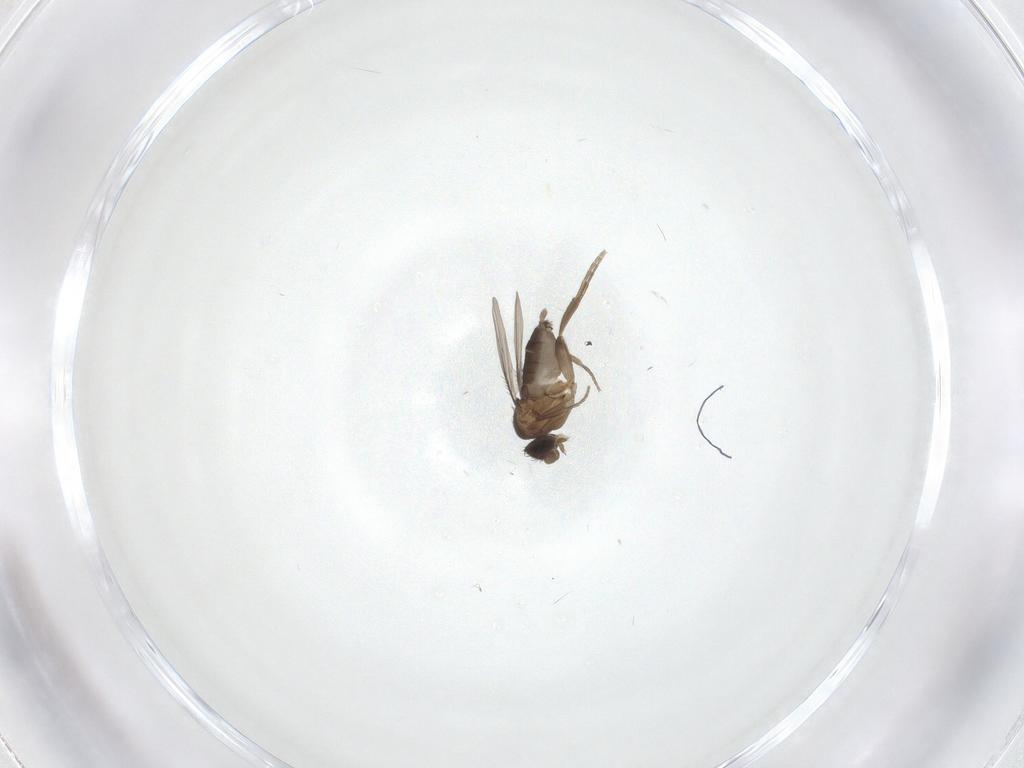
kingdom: Animalia
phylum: Arthropoda
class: Insecta
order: Diptera
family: Phoridae
